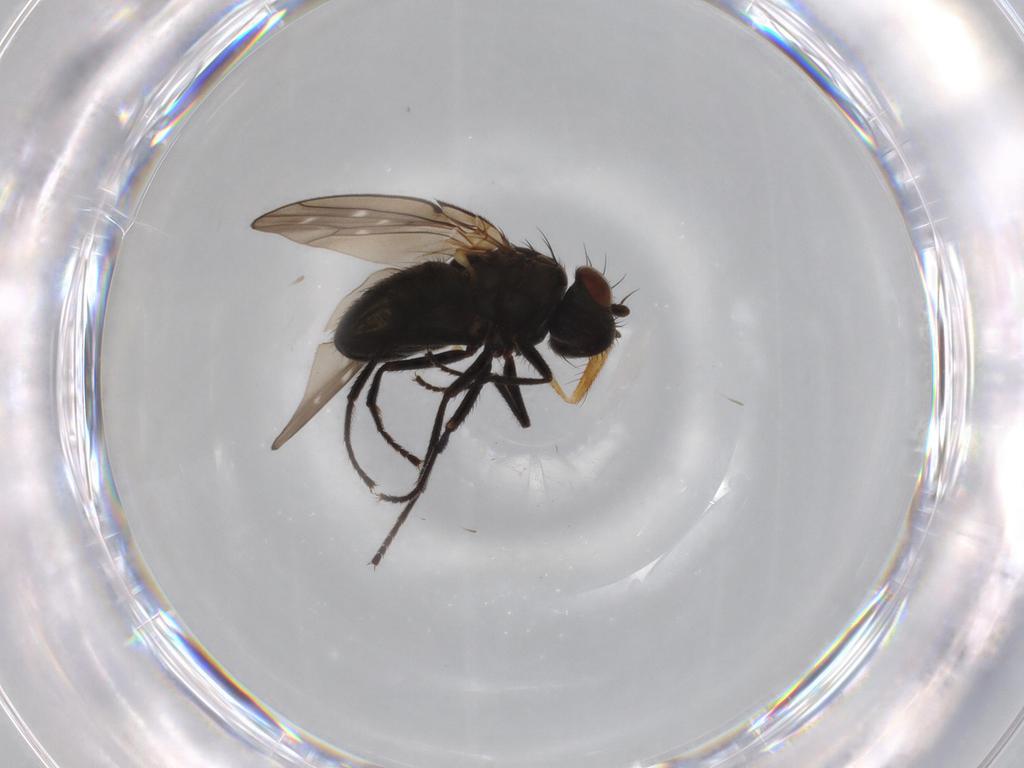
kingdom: Animalia
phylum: Arthropoda
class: Insecta
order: Diptera
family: Ephydridae
